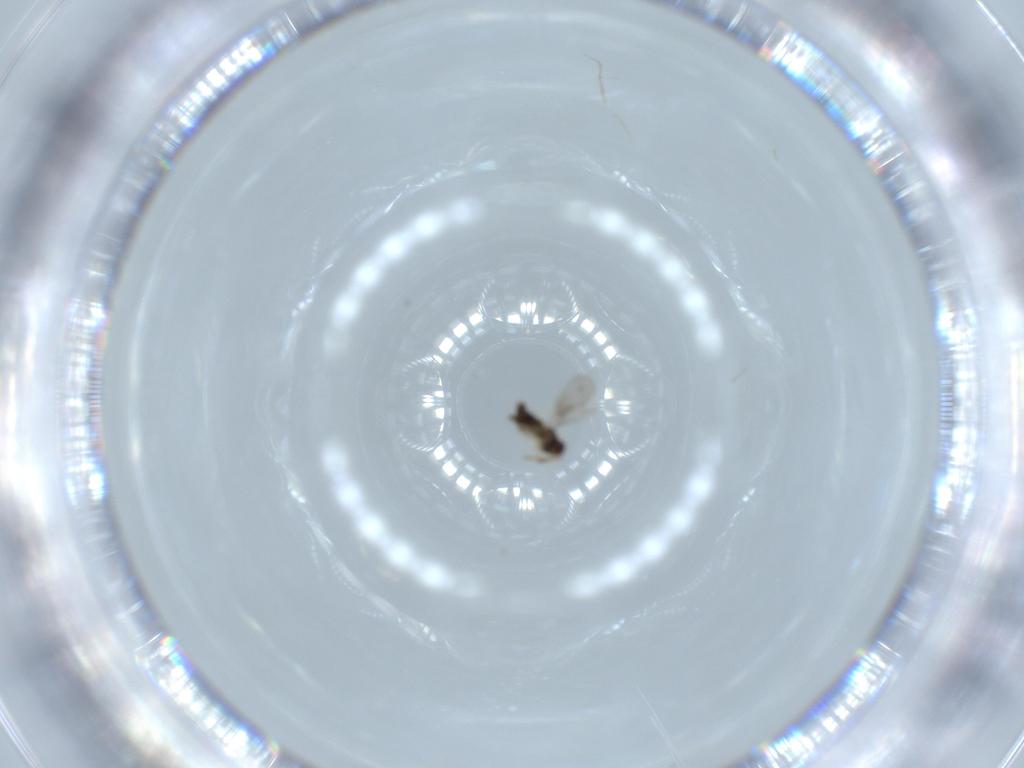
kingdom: Animalia
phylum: Arthropoda
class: Insecta
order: Hymenoptera
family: Aphelinidae
